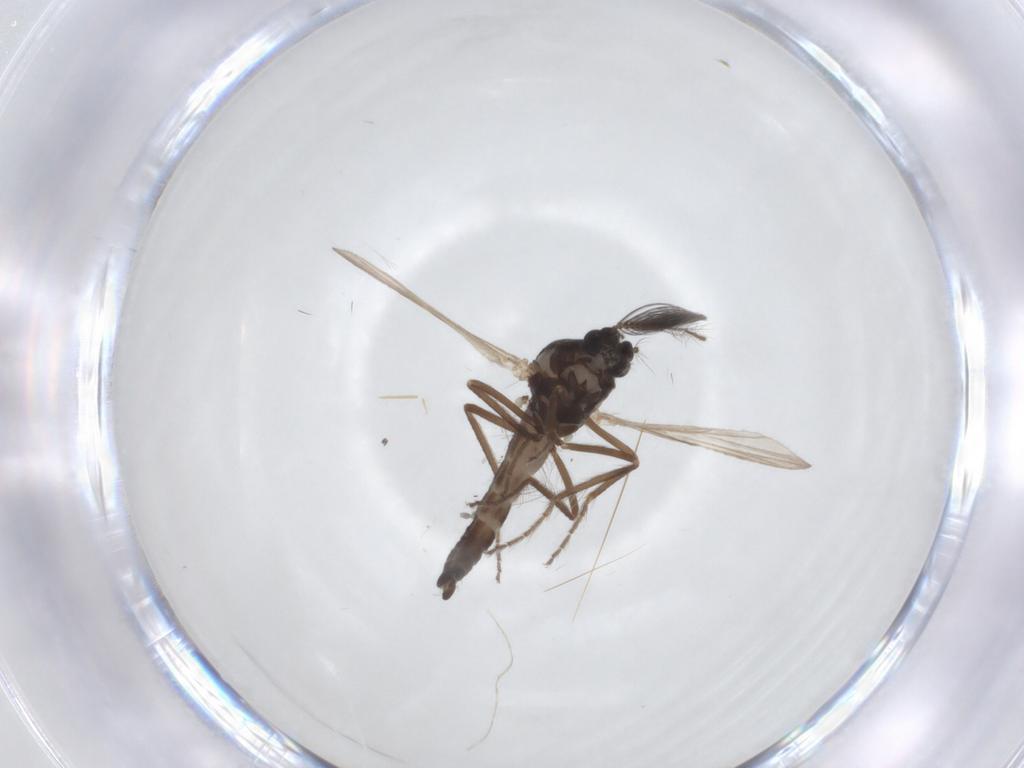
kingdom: Animalia
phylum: Arthropoda
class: Insecta
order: Diptera
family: Ceratopogonidae
